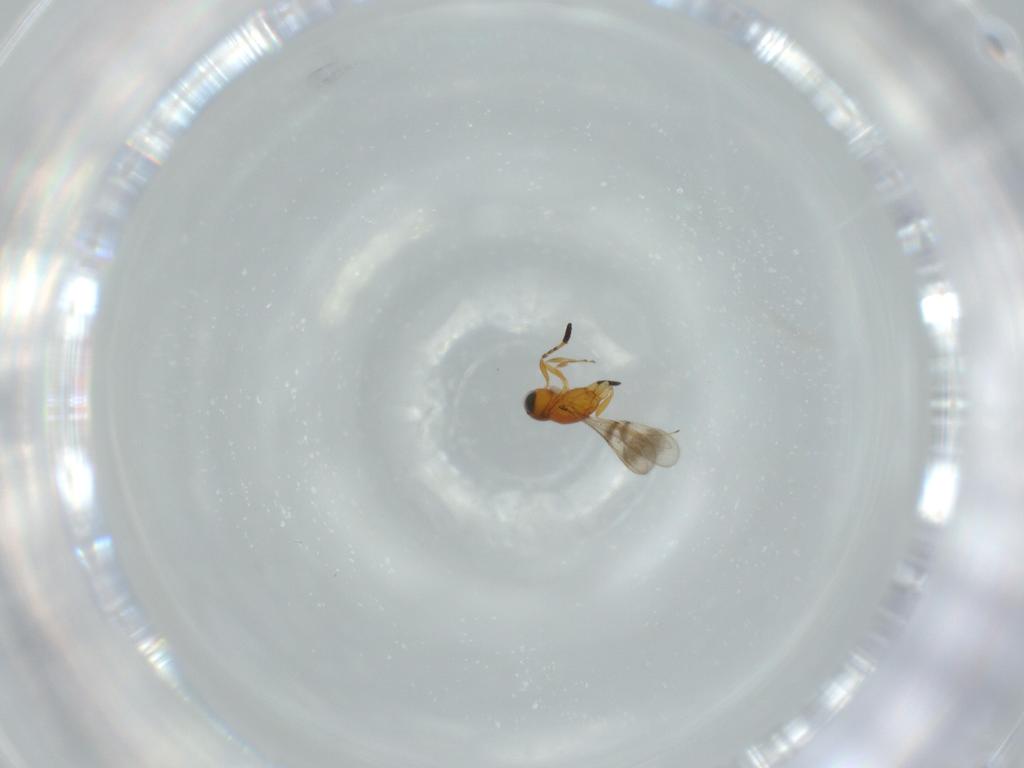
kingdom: Animalia
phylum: Arthropoda
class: Insecta
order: Hymenoptera
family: Scelionidae
